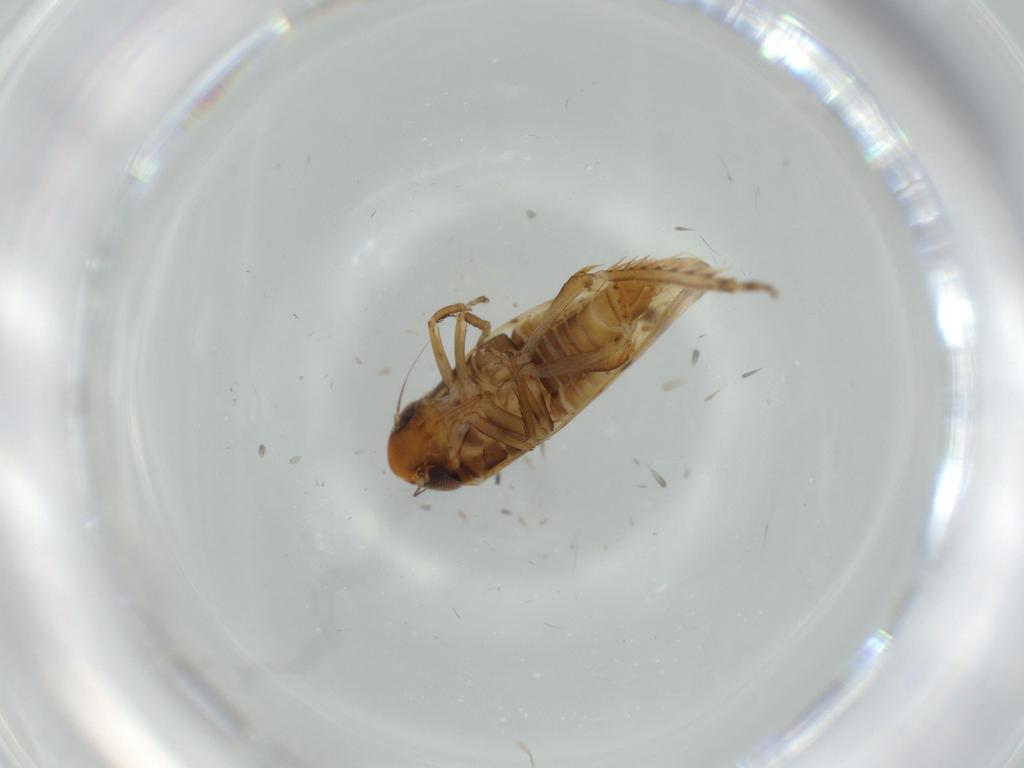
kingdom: Animalia
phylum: Arthropoda
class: Insecta
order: Hemiptera
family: Cicadellidae
